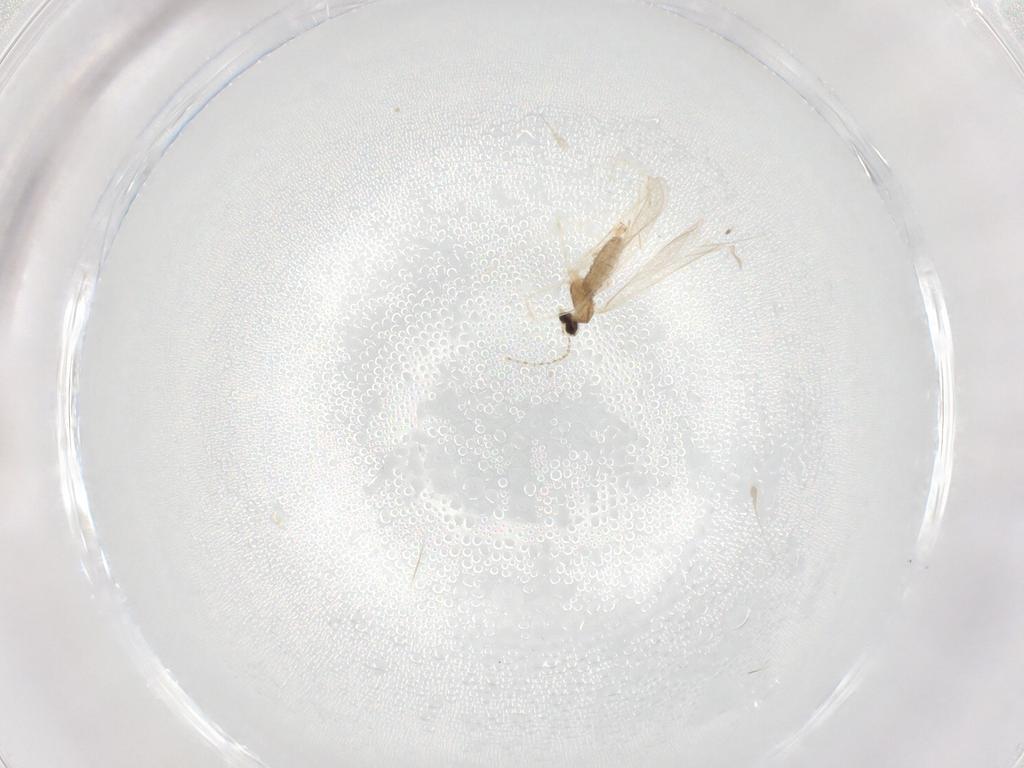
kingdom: Animalia
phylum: Arthropoda
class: Insecta
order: Diptera
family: Cecidomyiidae
